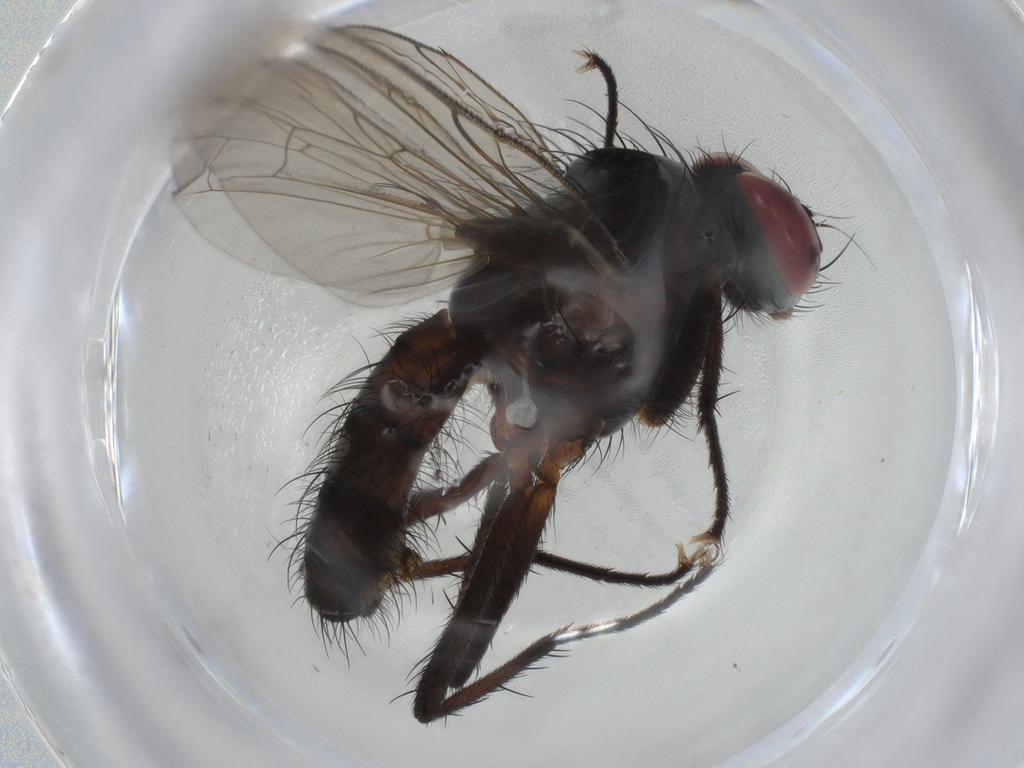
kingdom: Animalia
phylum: Arthropoda
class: Insecta
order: Diptera
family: Anthomyiidae
